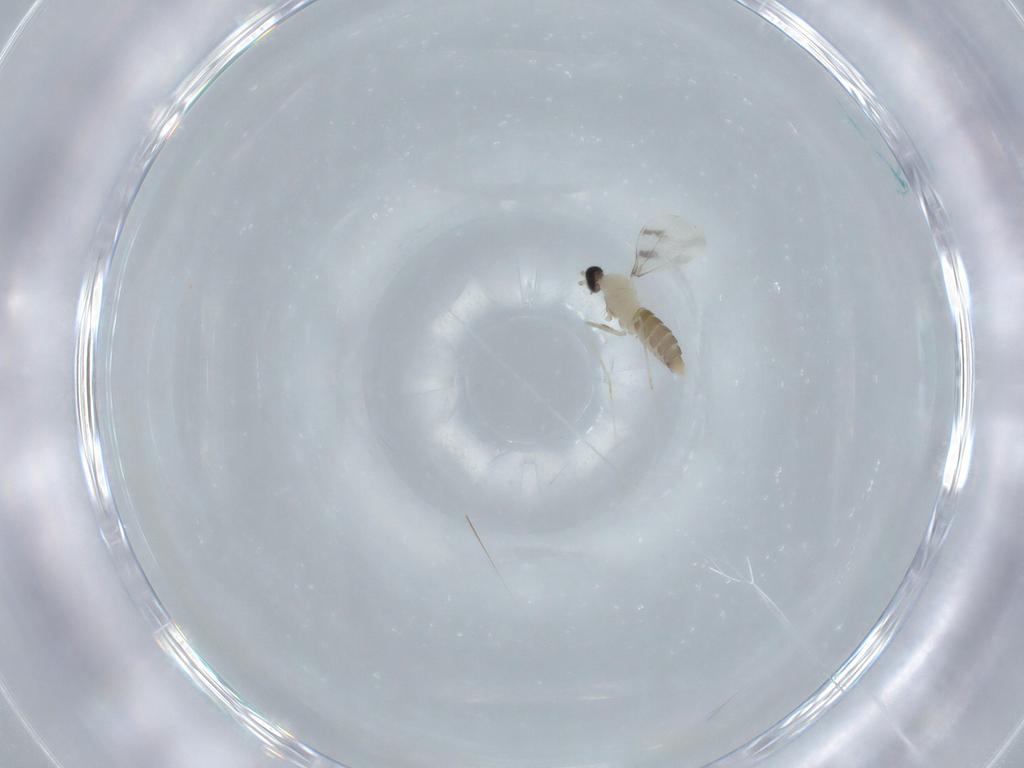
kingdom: Animalia
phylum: Arthropoda
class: Insecta
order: Diptera
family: Cecidomyiidae
